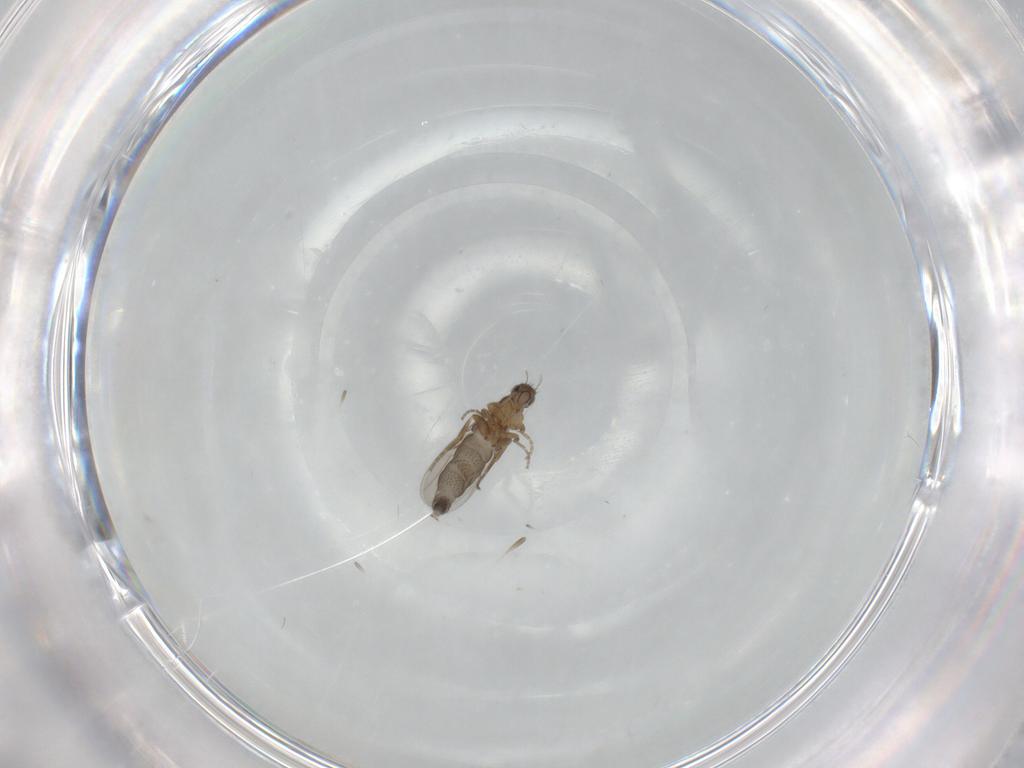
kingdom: Animalia
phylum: Arthropoda
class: Insecta
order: Diptera
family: Phoridae
